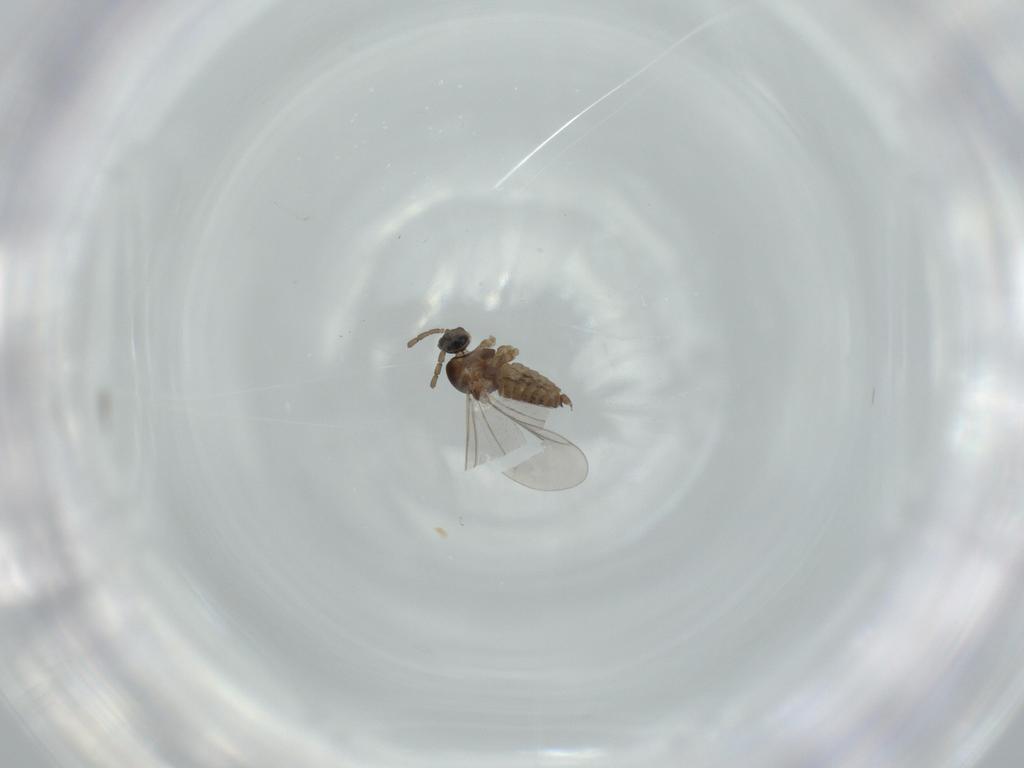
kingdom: Animalia
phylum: Arthropoda
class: Insecta
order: Diptera
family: Cecidomyiidae
